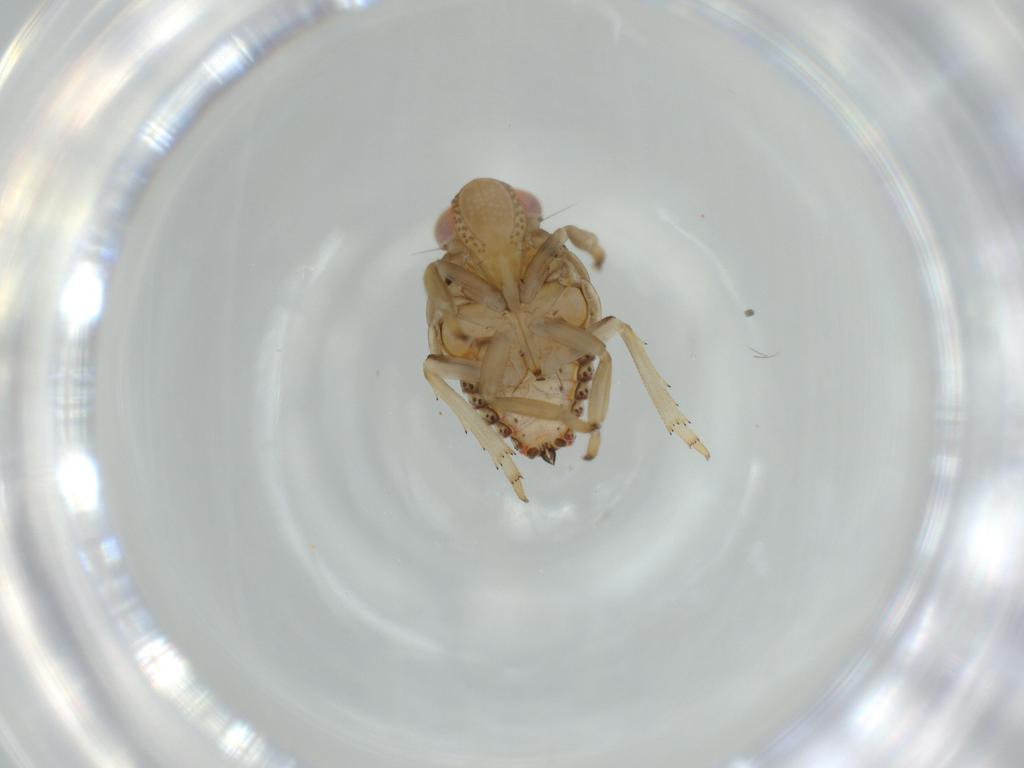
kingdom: Animalia
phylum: Arthropoda
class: Insecta
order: Hemiptera
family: Issidae
